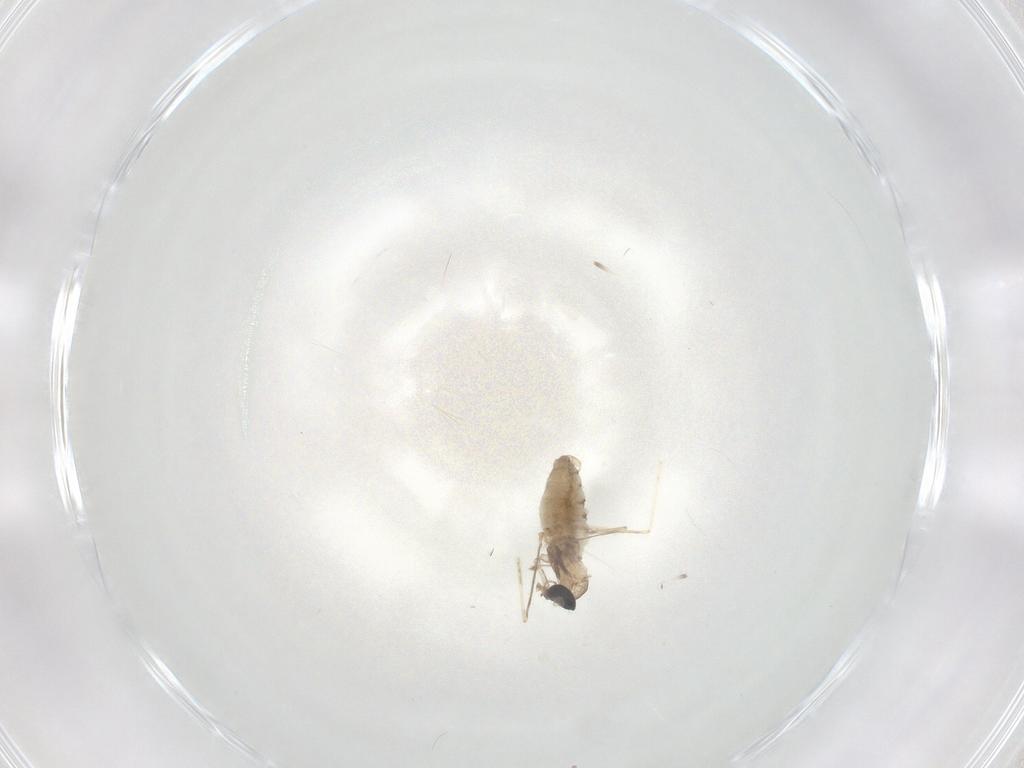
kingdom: Animalia
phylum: Arthropoda
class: Insecta
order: Diptera
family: Cecidomyiidae
